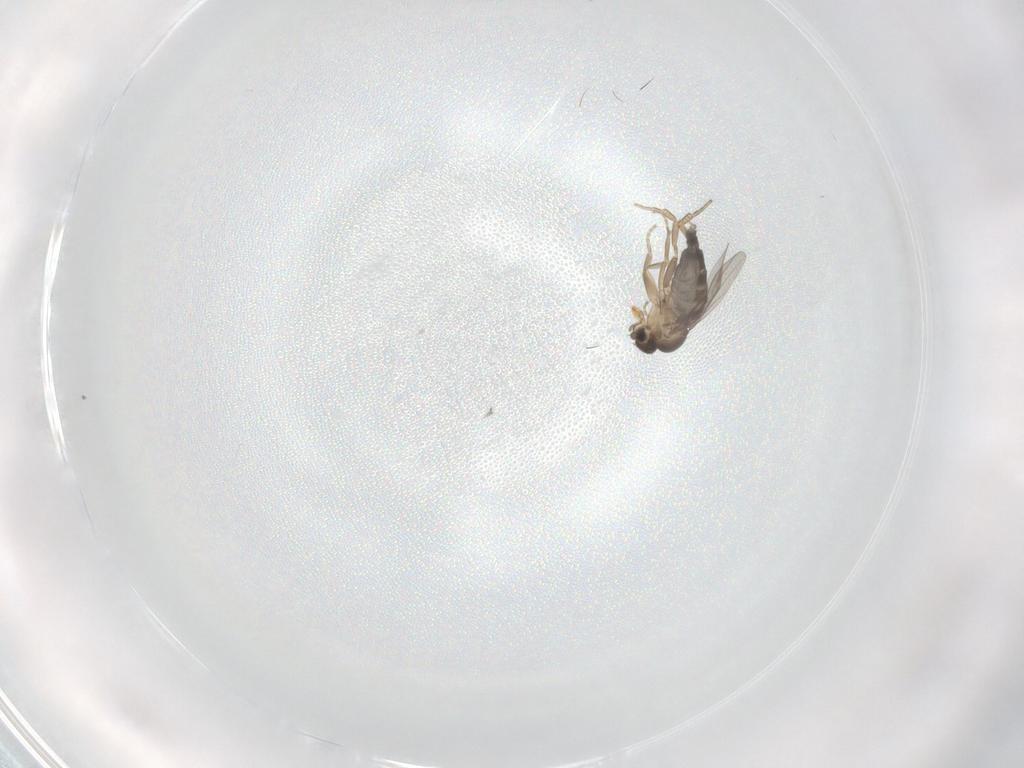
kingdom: Animalia
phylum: Arthropoda
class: Insecta
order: Diptera
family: Phoridae
